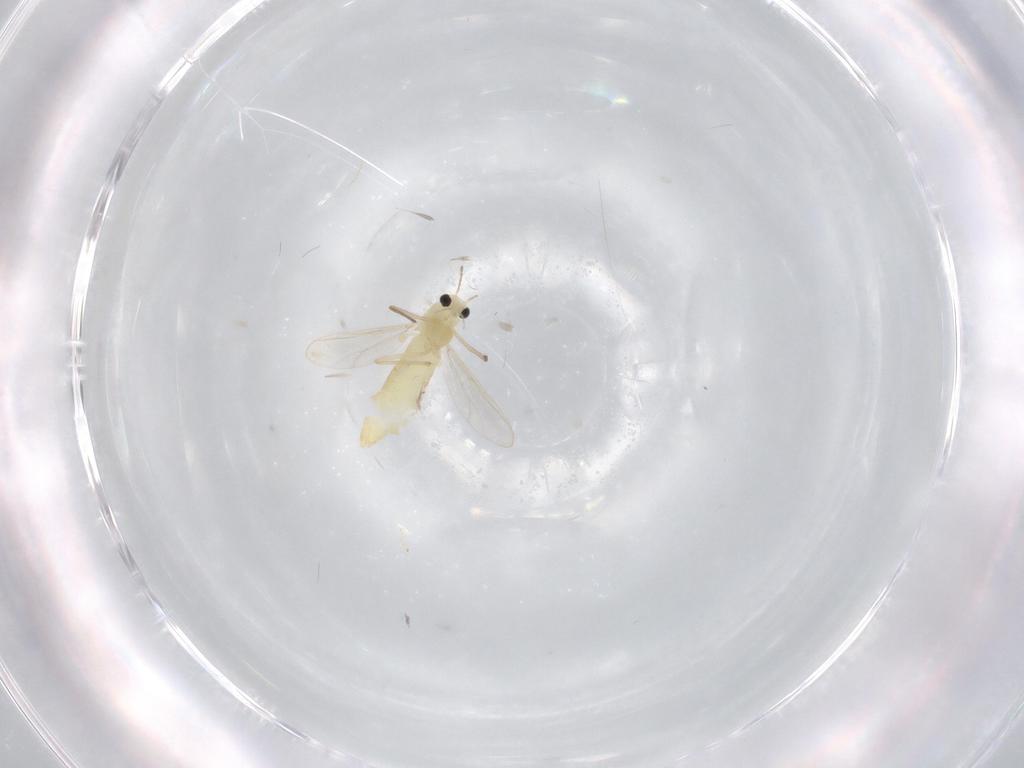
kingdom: Animalia
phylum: Arthropoda
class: Insecta
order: Diptera
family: Chironomidae
